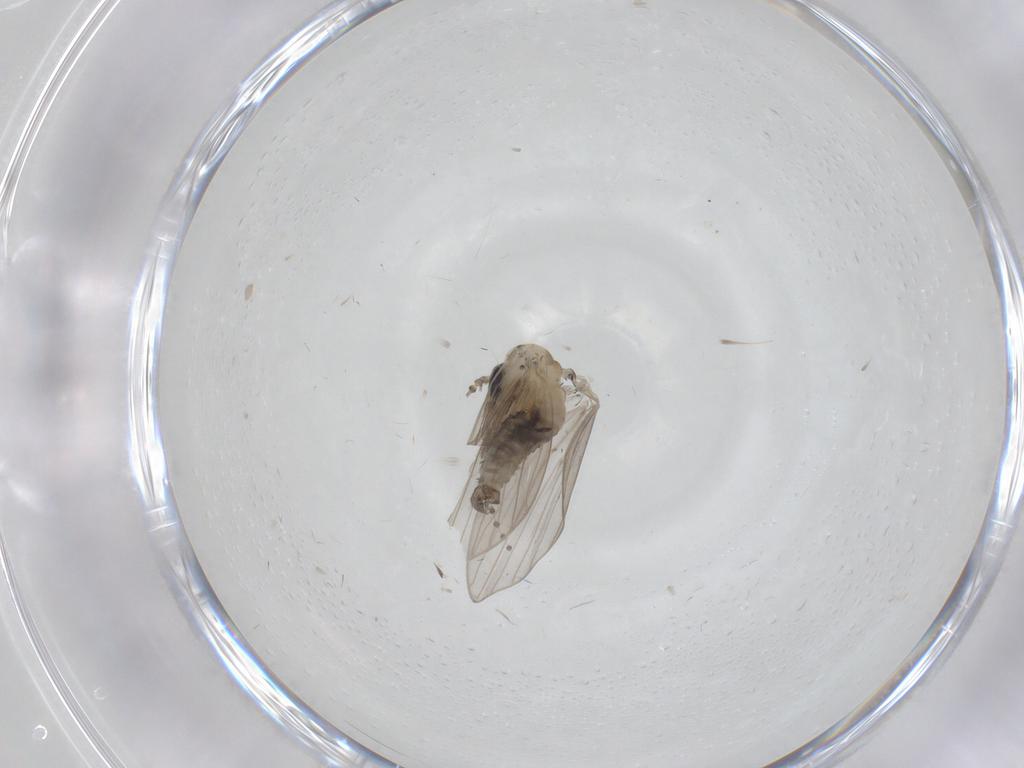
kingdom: Animalia
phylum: Arthropoda
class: Insecta
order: Diptera
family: Psychodidae
